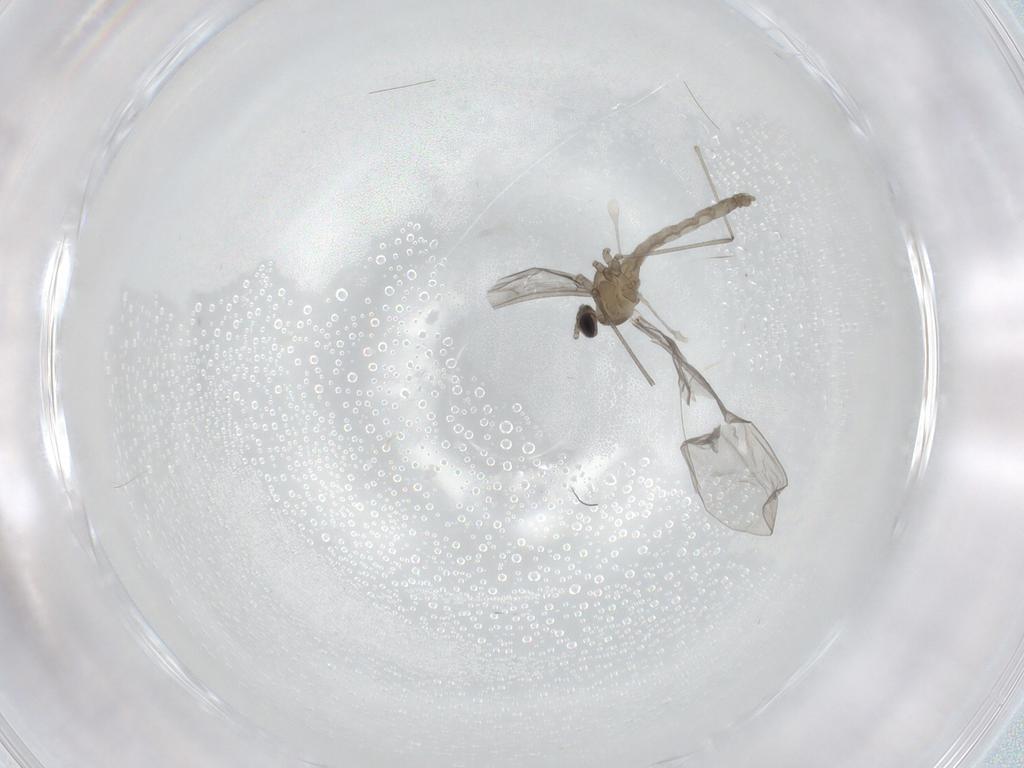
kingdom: Animalia
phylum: Arthropoda
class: Insecta
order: Diptera
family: Cecidomyiidae
